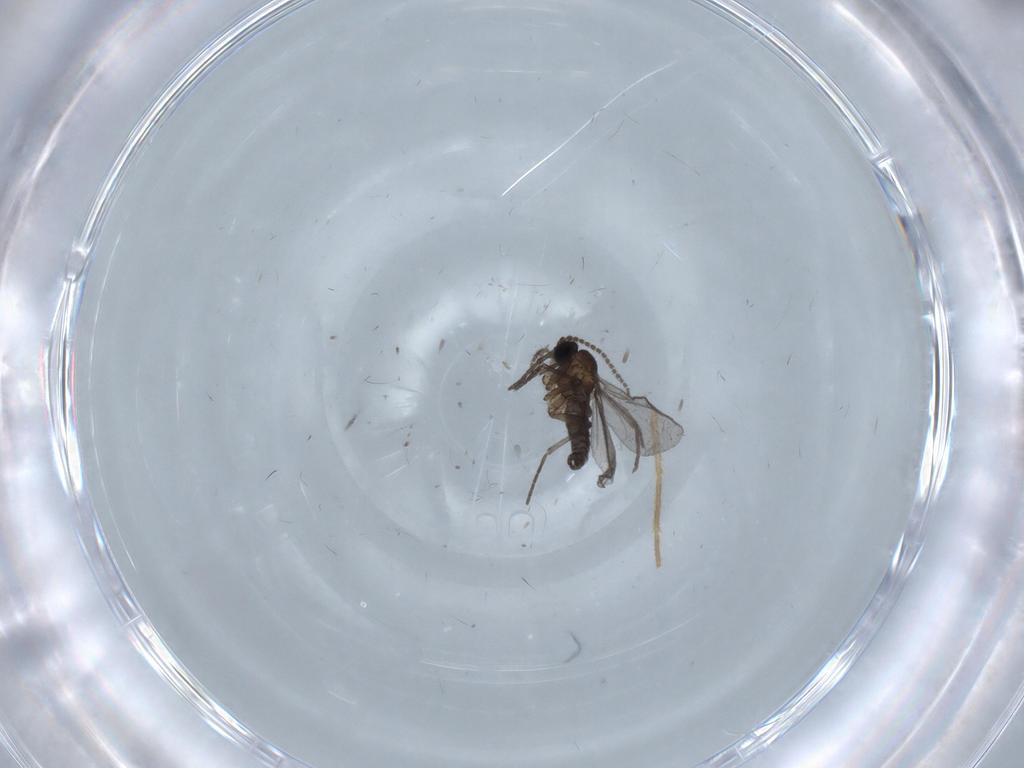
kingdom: Animalia
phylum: Arthropoda
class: Insecta
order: Diptera
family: Cecidomyiidae
